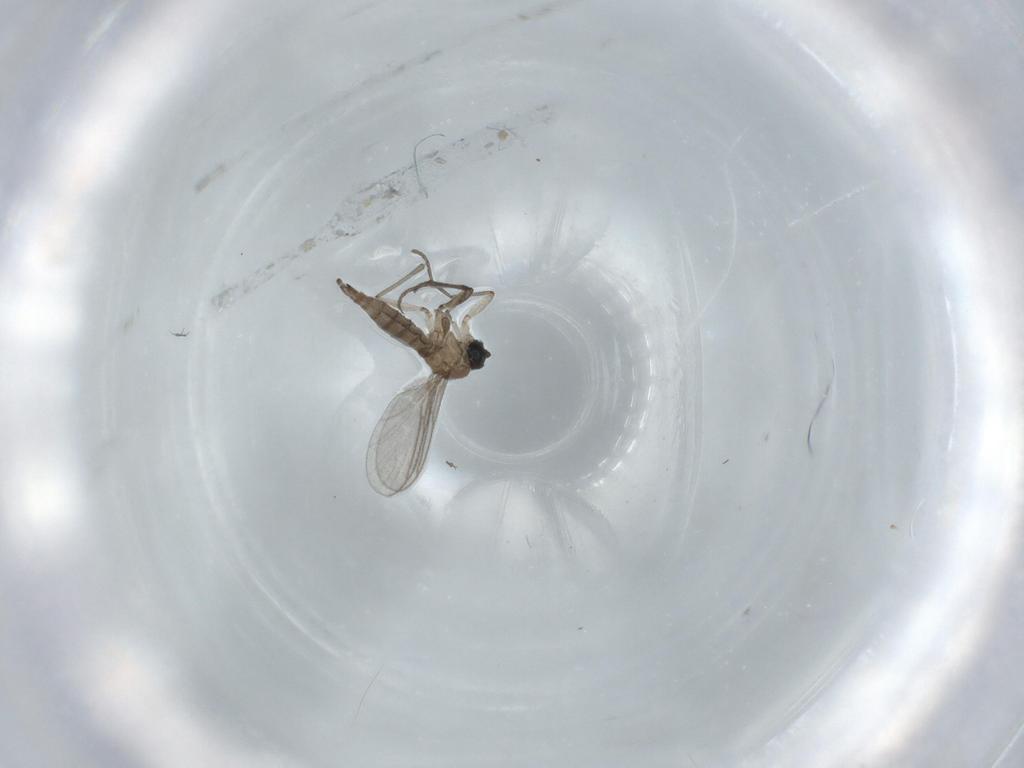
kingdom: Animalia
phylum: Arthropoda
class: Insecta
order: Diptera
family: Sciaridae
